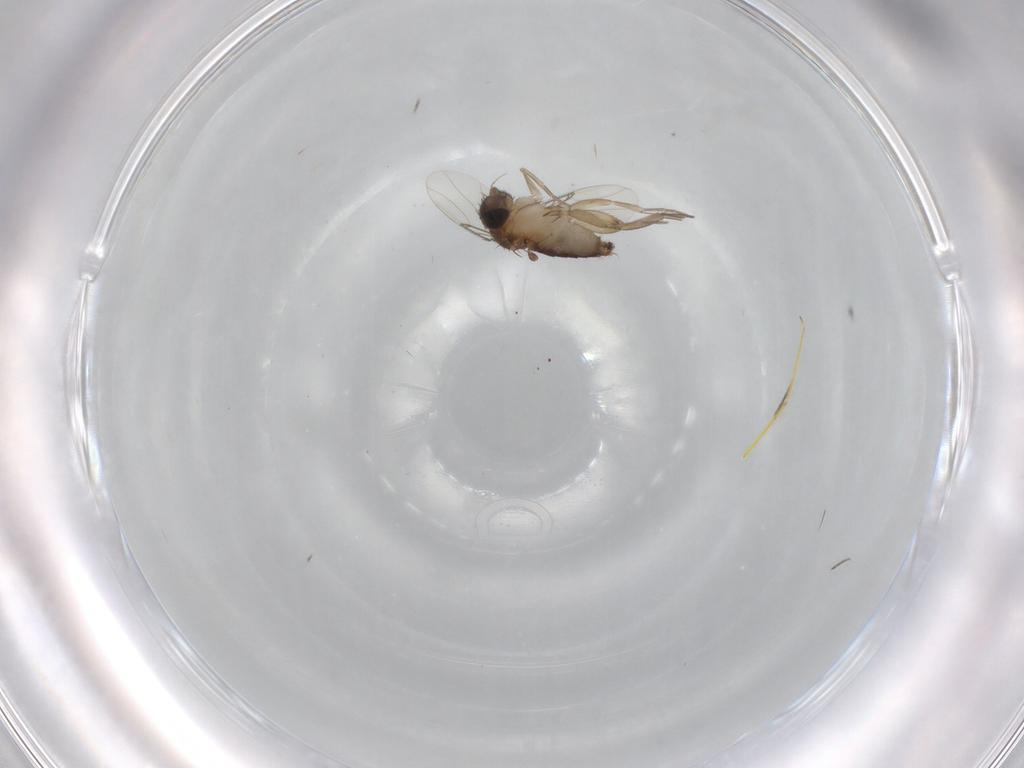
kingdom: Animalia
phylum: Arthropoda
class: Insecta
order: Diptera
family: Phoridae
